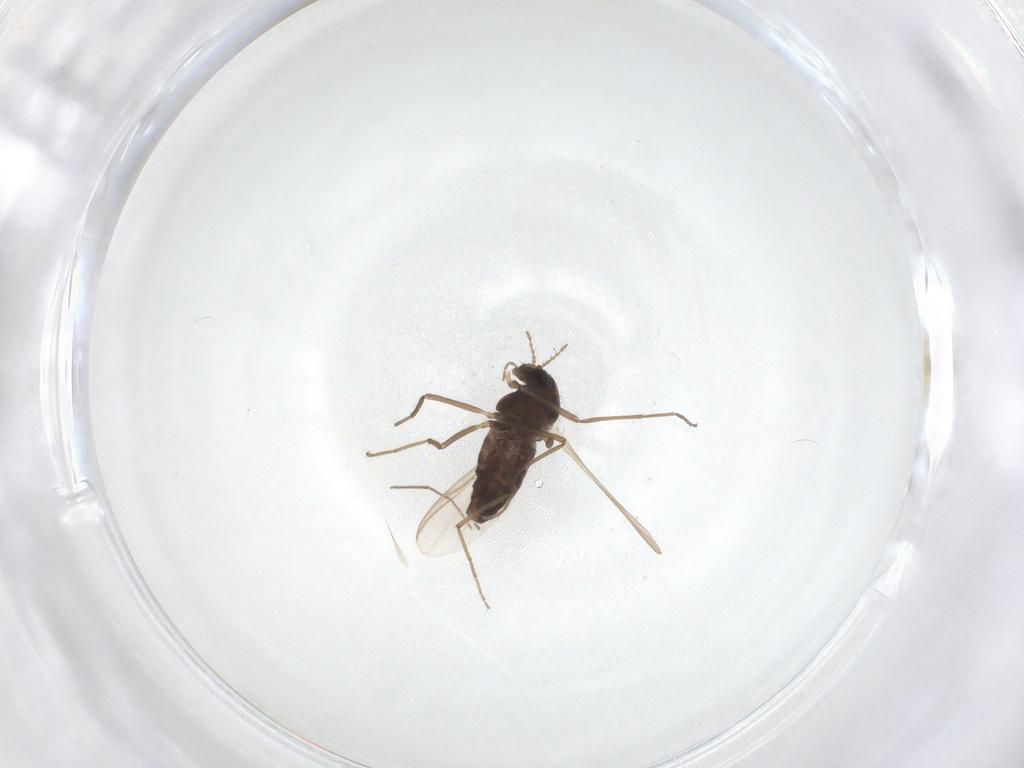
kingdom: Animalia
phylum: Arthropoda
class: Insecta
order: Diptera
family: Chironomidae
